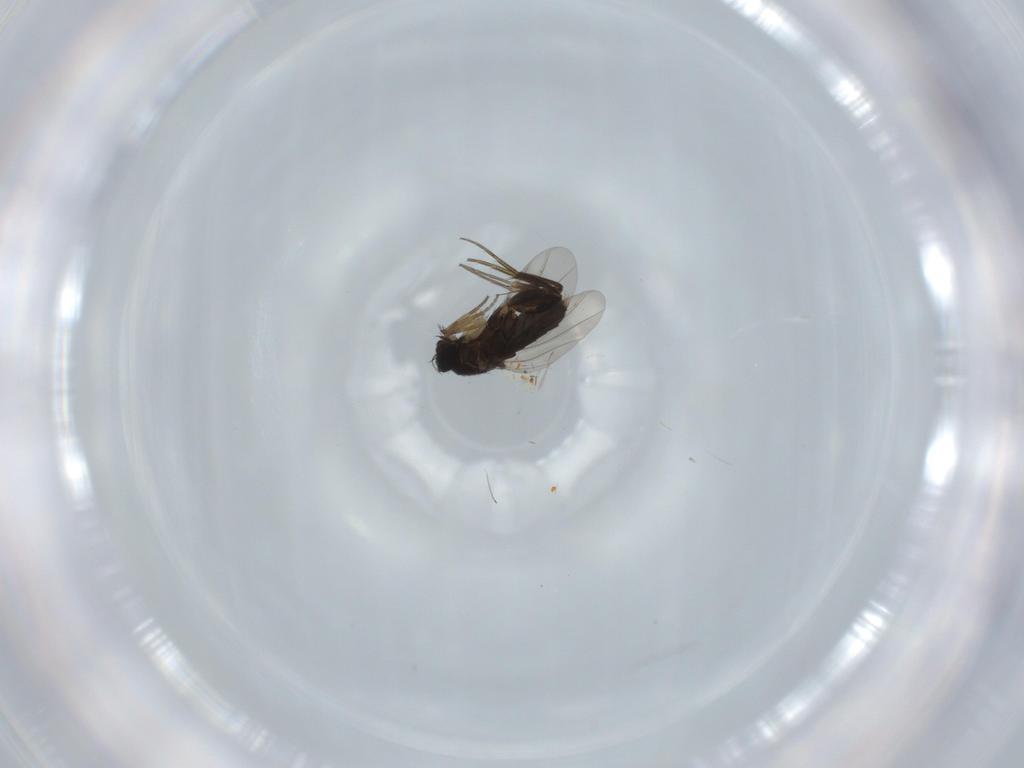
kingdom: Animalia
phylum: Arthropoda
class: Insecta
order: Diptera
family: Phoridae
